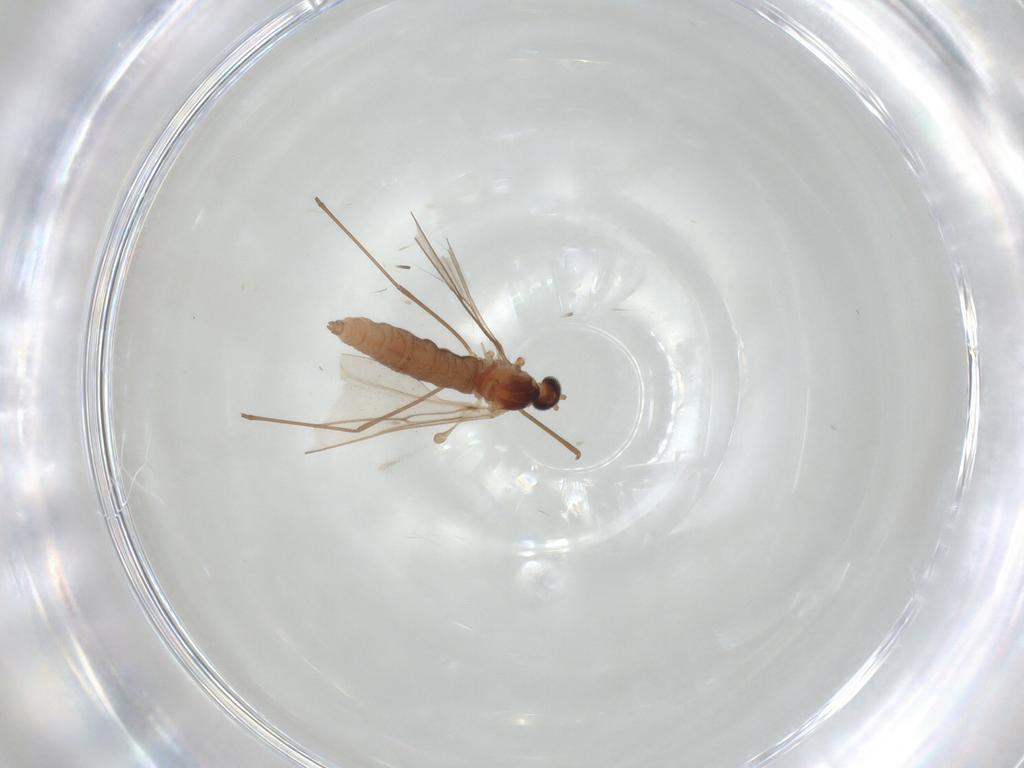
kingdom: Animalia
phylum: Arthropoda
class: Insecta
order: Diptera
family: Cecidomyiidae
